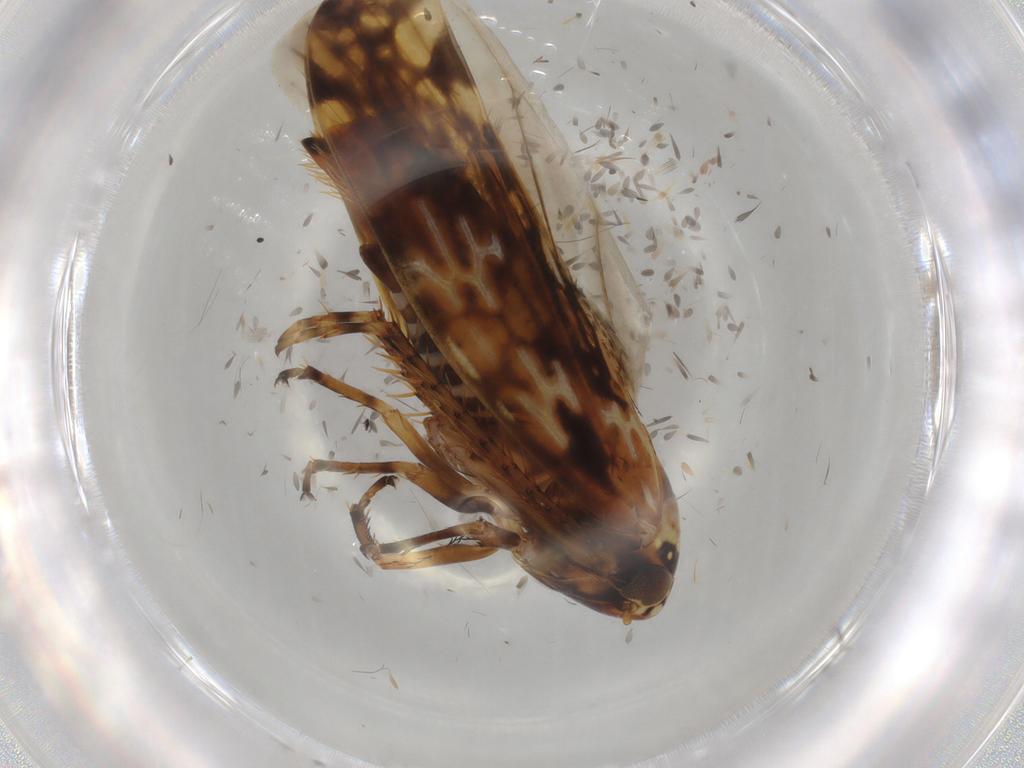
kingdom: Animalia
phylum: Arthropoda
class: Insecta
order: Hemiptera
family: Cicadellidae
